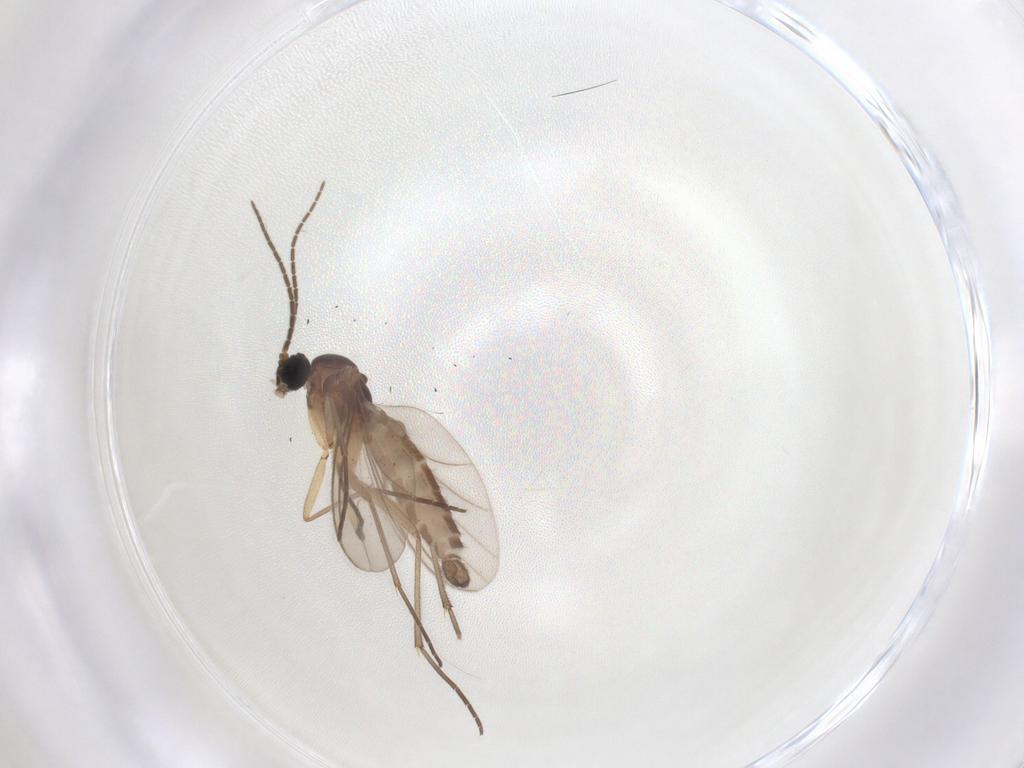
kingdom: Animalia
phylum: Arthropoda
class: Insecta
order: Diptera
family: Sciaridae
